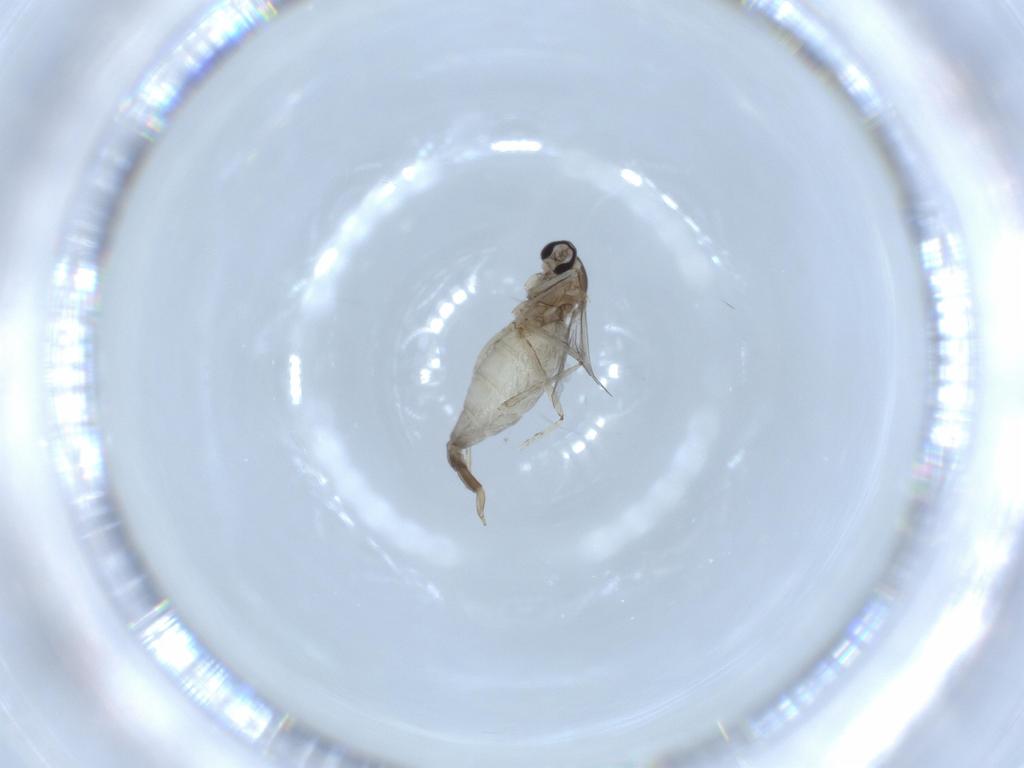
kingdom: Animalia
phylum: Arthropoda
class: Insecta
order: Diptera
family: Cecidomyiidae
